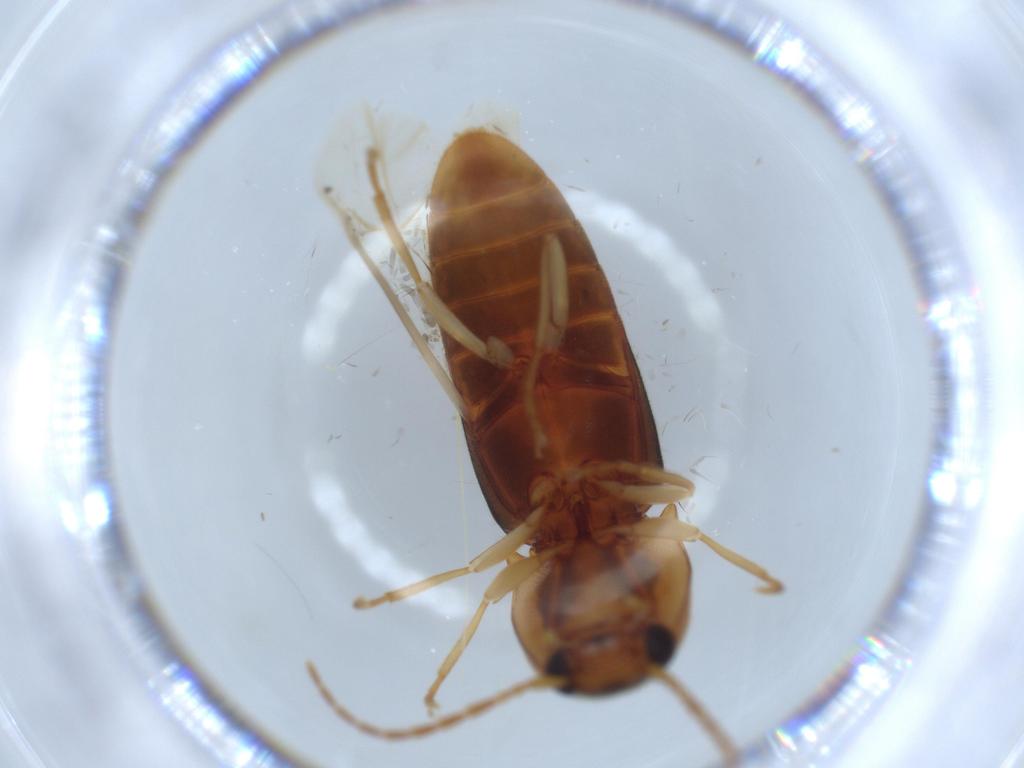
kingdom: Animalia
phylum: Arthropoda
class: Insecta
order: Coleoptera
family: Elateridae
